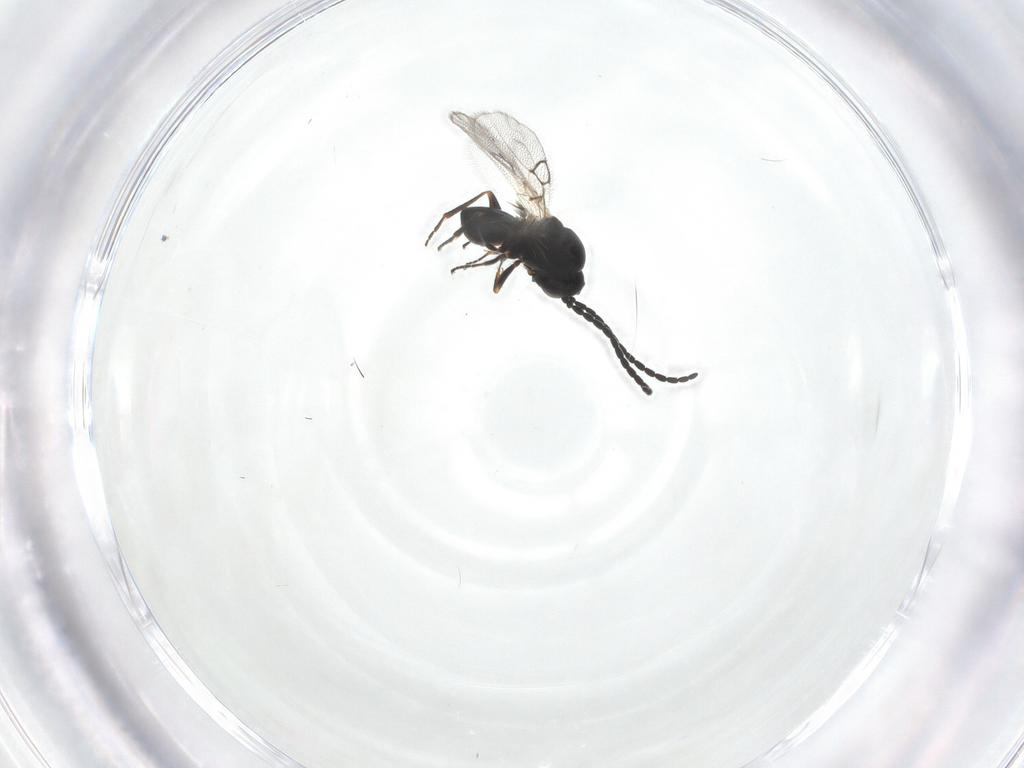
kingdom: Animalia
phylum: Arthropoda
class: Insecta
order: Hymenoptera
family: Figitidae
